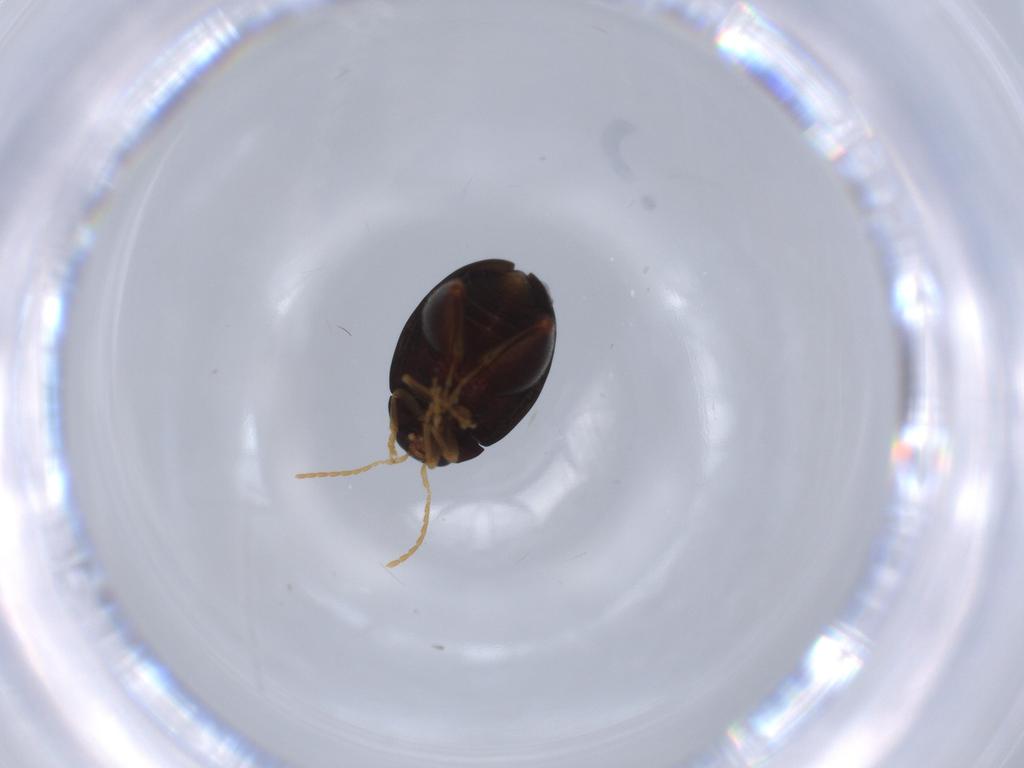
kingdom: Animalia
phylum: Arthropoda
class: Insecta
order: Coleoptera
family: Chrysomelidae
